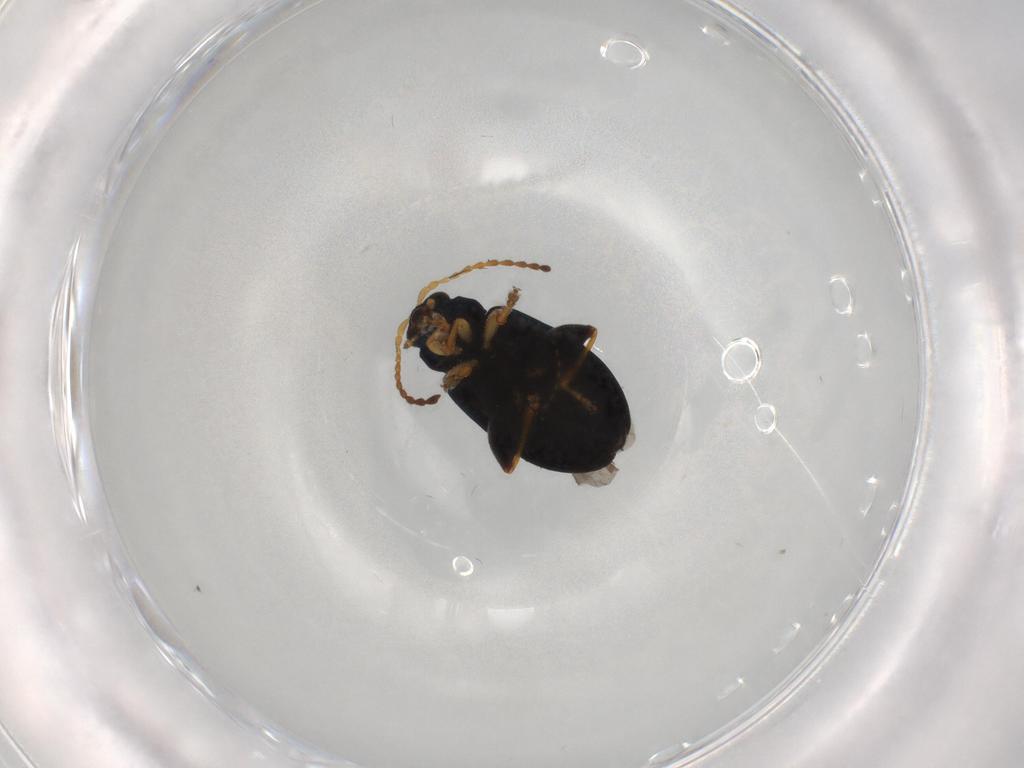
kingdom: Animalia
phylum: Arthropoda
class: Insecta
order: Coleoptera
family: Chrysomelidae
